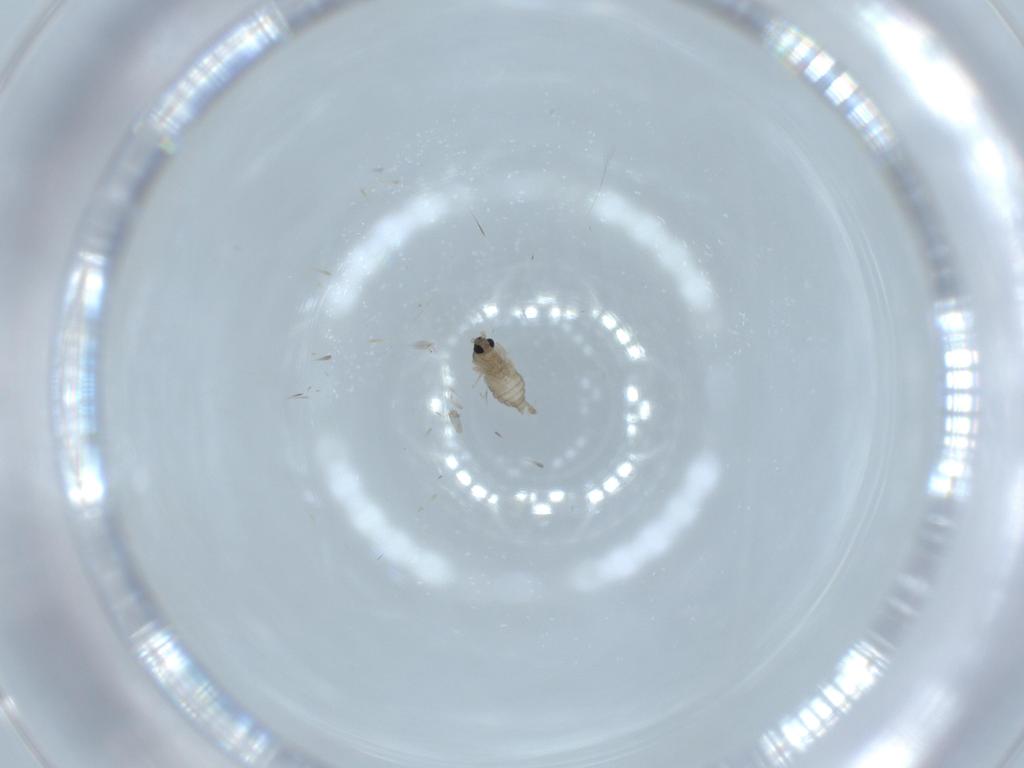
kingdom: Animalia
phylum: Arthropoda
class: Insecta
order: Diptera
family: Cecidomyiidae
